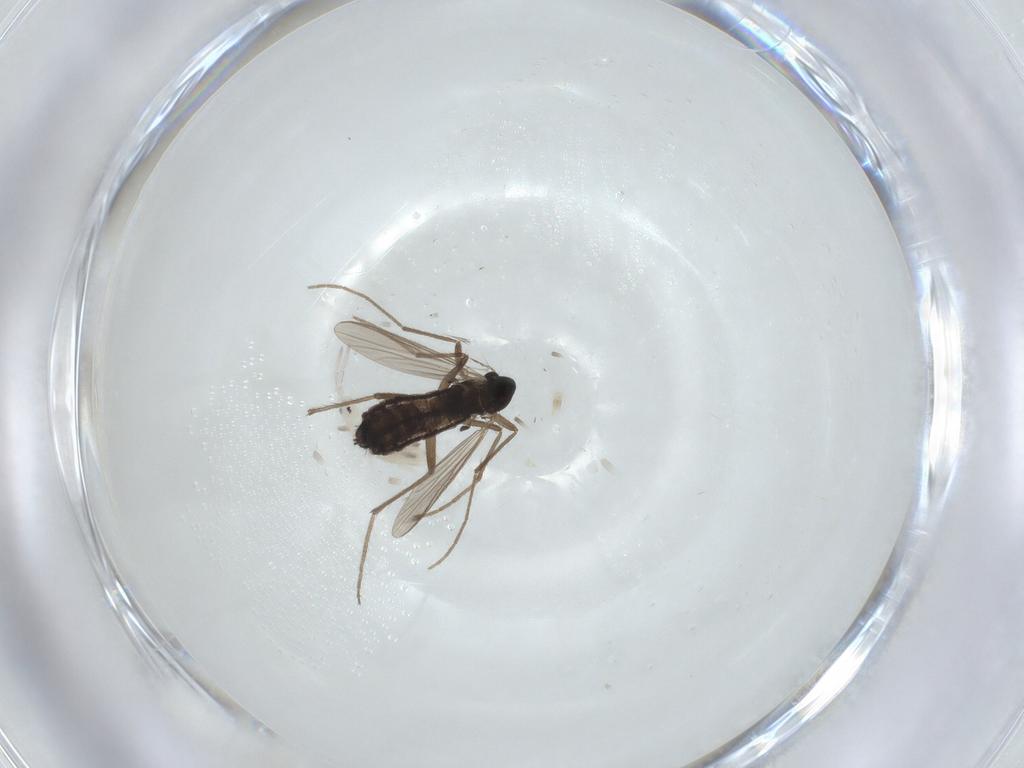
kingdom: Animalia
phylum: Arthropoda
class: Insecta
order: Diptera
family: Chironomidae
